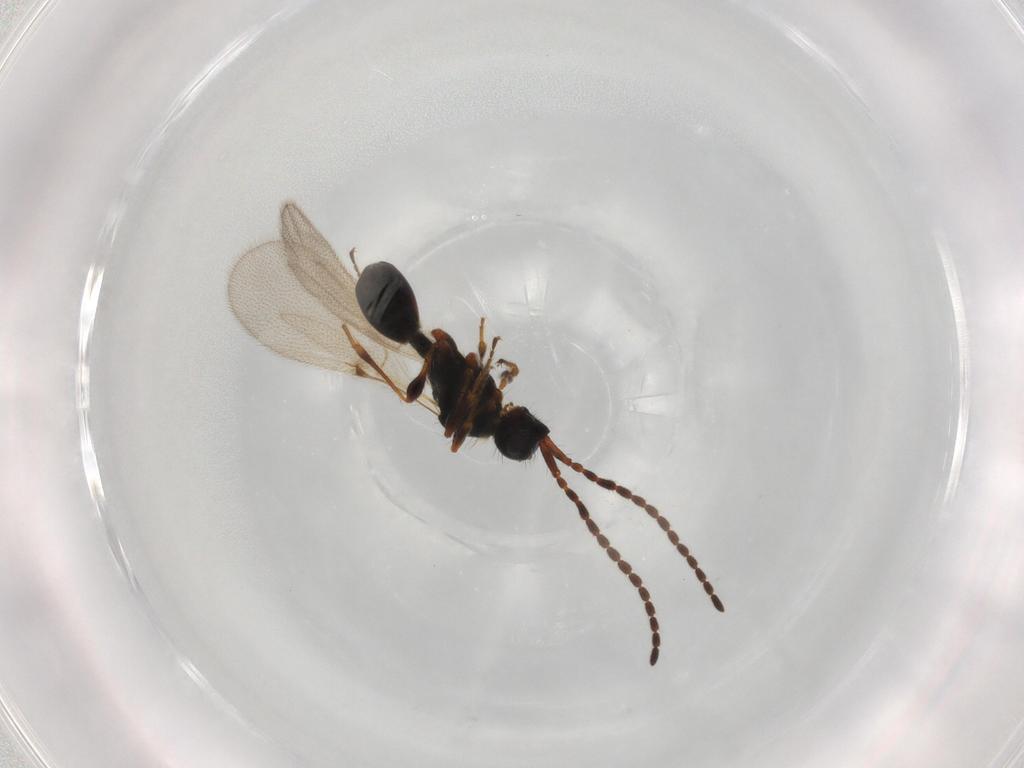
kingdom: Animalia
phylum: Arthropoda
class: Insecta
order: Hymenoptera
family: Diapriidae
